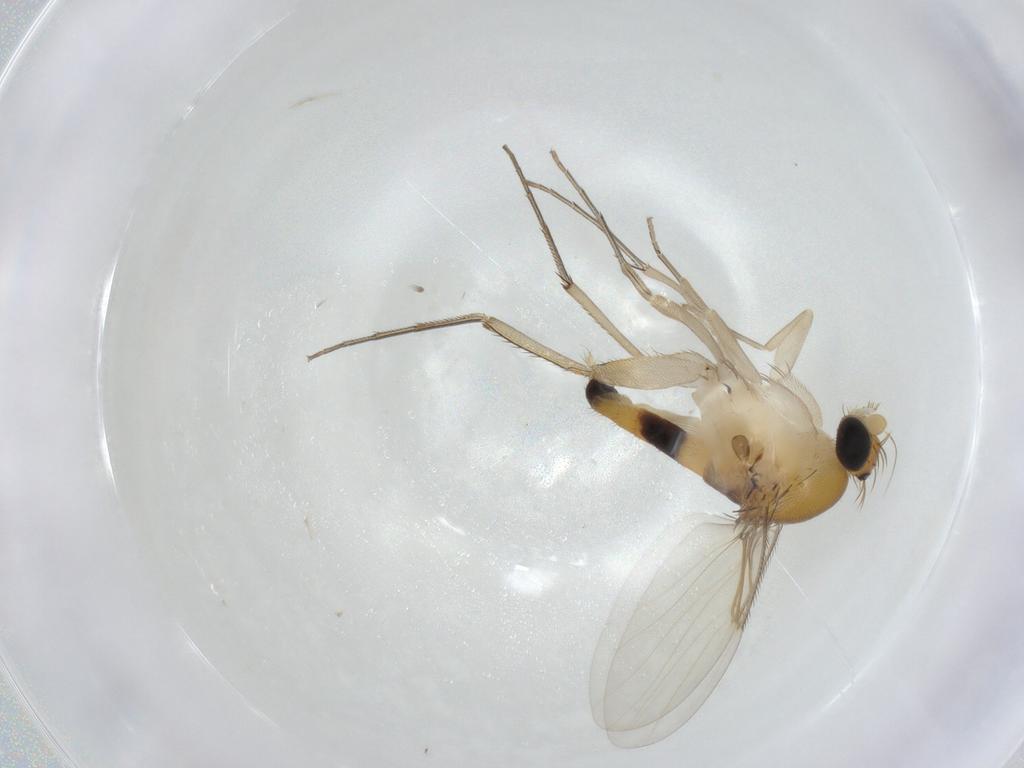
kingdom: Animalia
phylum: Arthropoda
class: Insecta
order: Diptera
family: Phoridae
